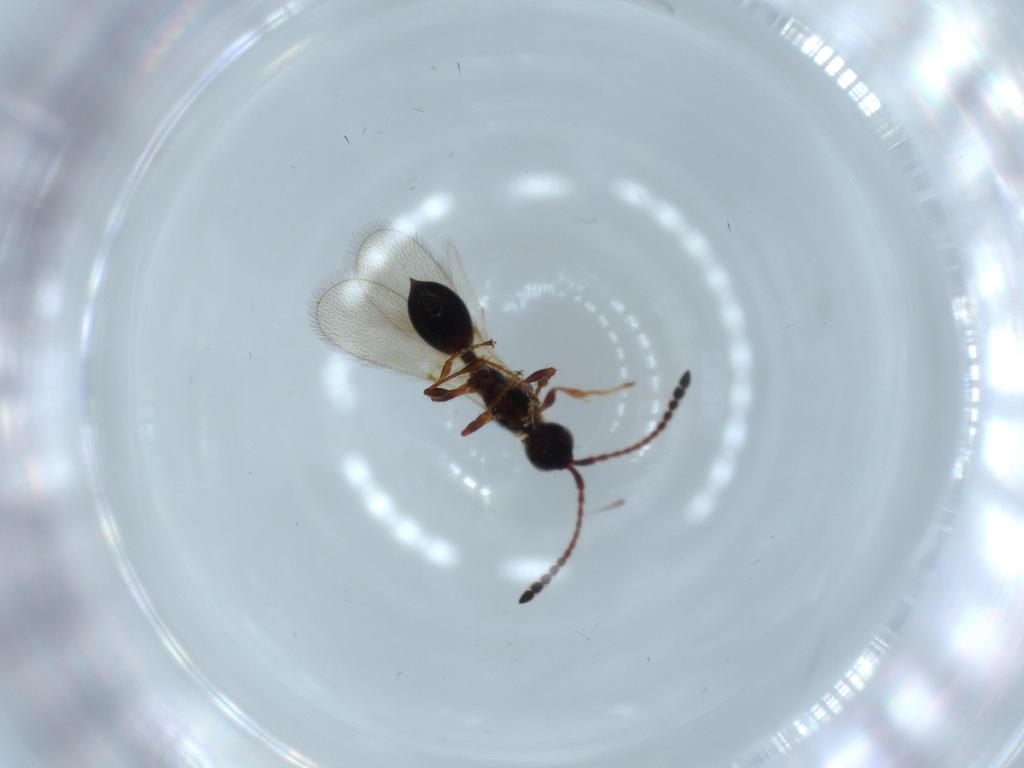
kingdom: Animalia
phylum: Arthropoda
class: Insecta
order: Hymenoptera
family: Diapriidae
